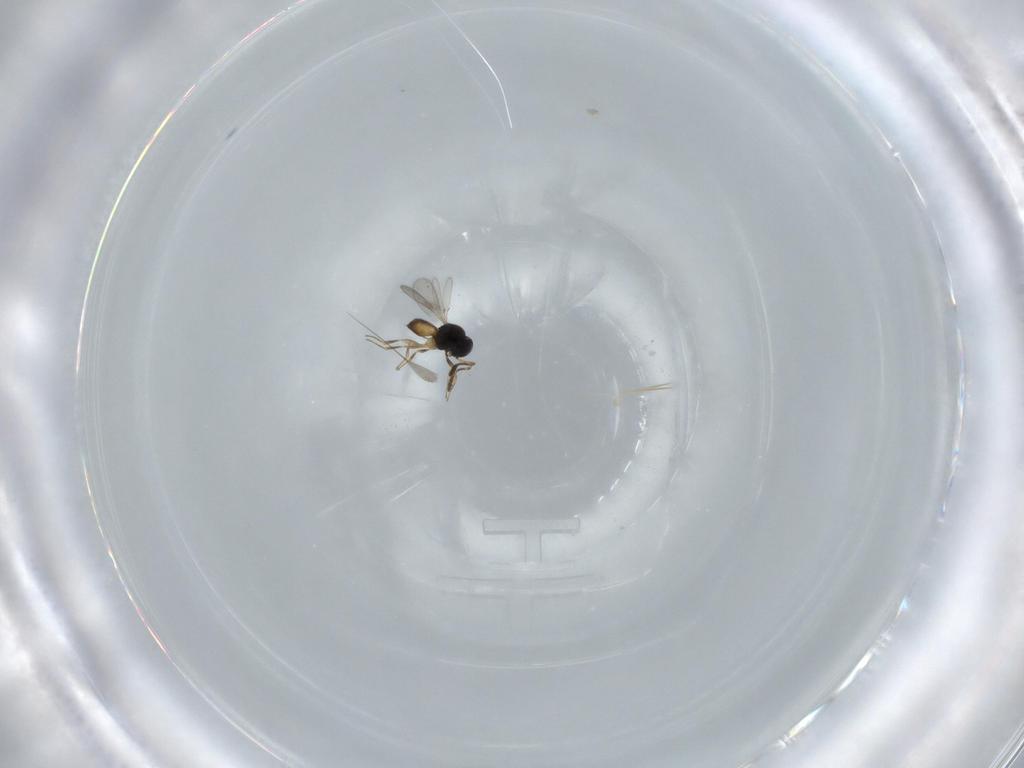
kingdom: Animalia
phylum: Arthropoda
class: Insecta
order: Hymenoptera
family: Scelionidae
